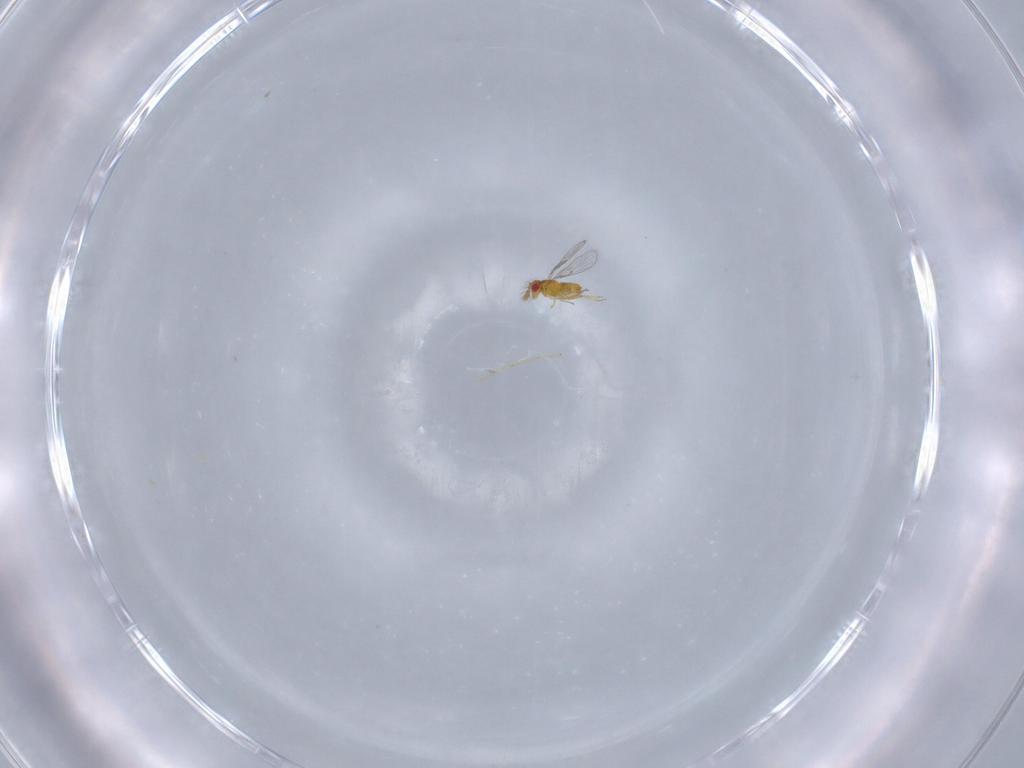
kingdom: Animalia
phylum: Arthropoda
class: Insecta
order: Hymenoptera
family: Trichogrammatidae
